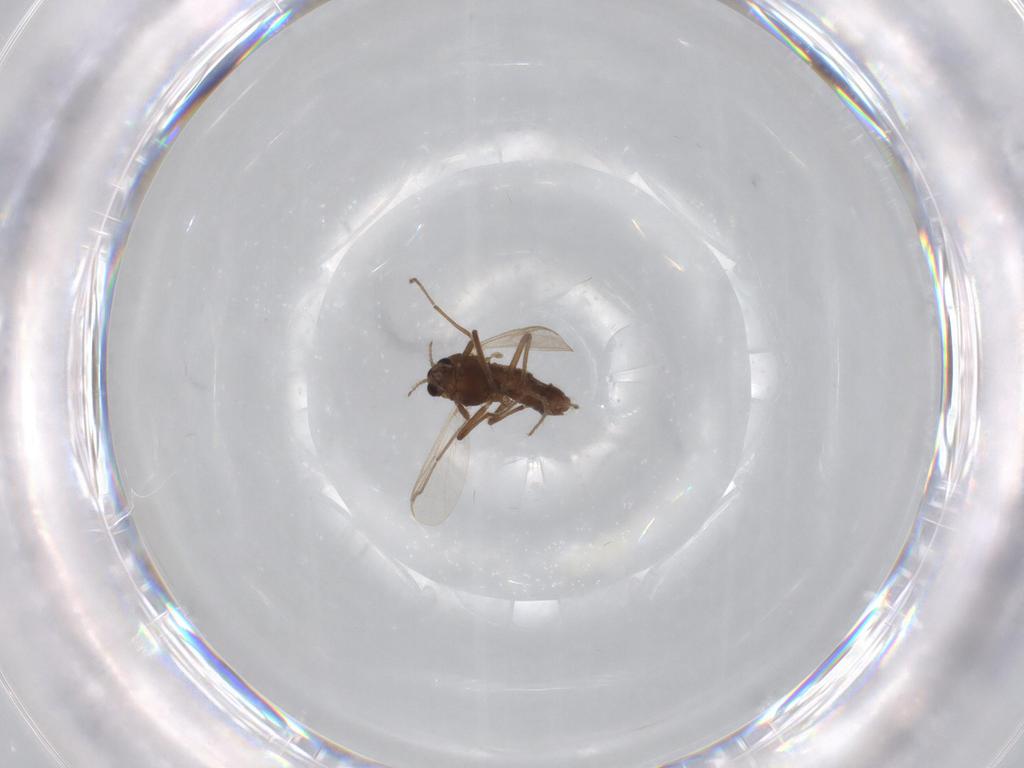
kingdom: Animalia
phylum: Arthropoda
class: Insecta
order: Diptera
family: Chironomidae
